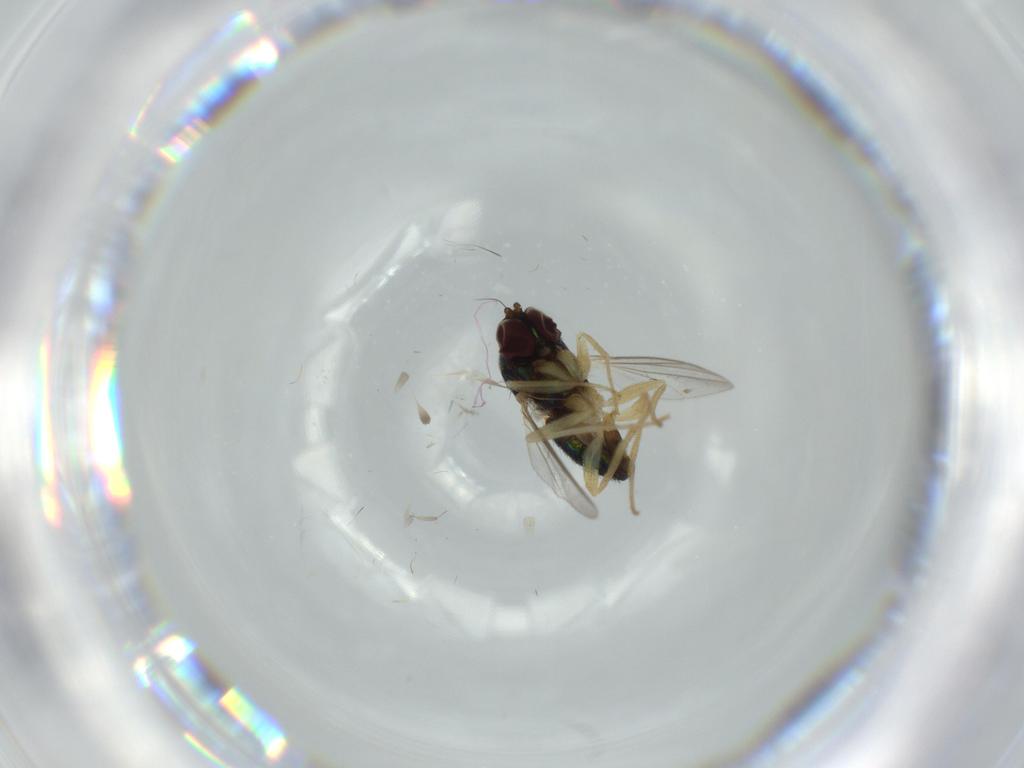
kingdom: Animalia
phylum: Arthropoda
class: Insecta
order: Diptera
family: Dolichopodidae
